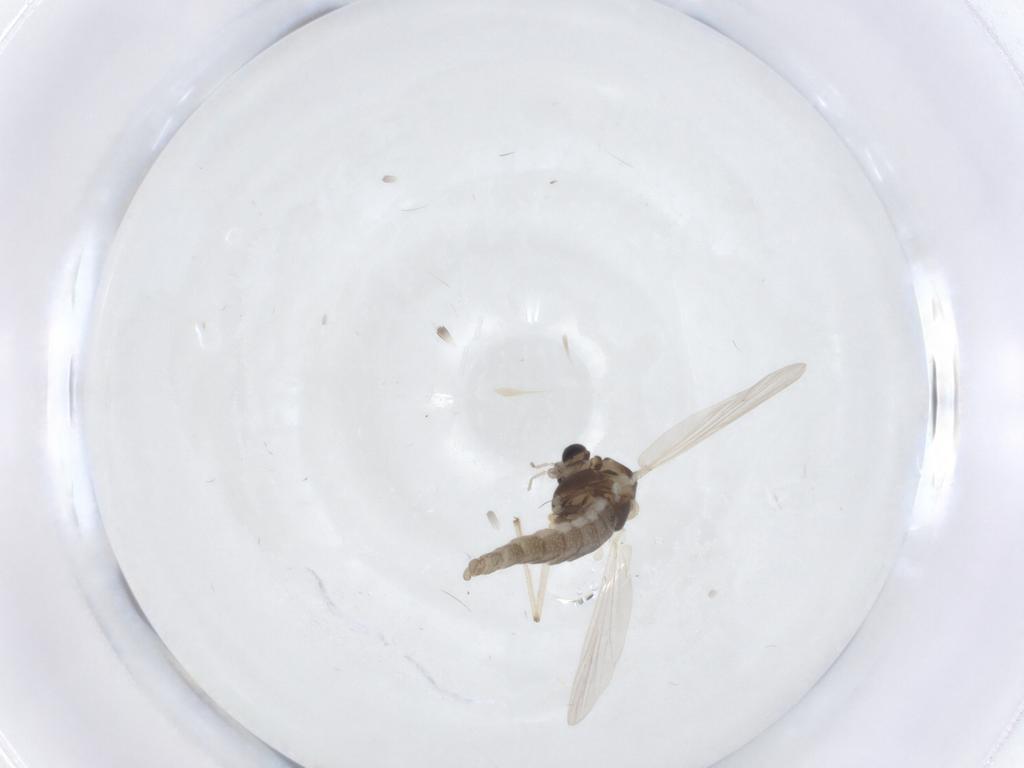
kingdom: Animalia
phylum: Arthropoda
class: Insecta
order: Diptera
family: Chironomidae
